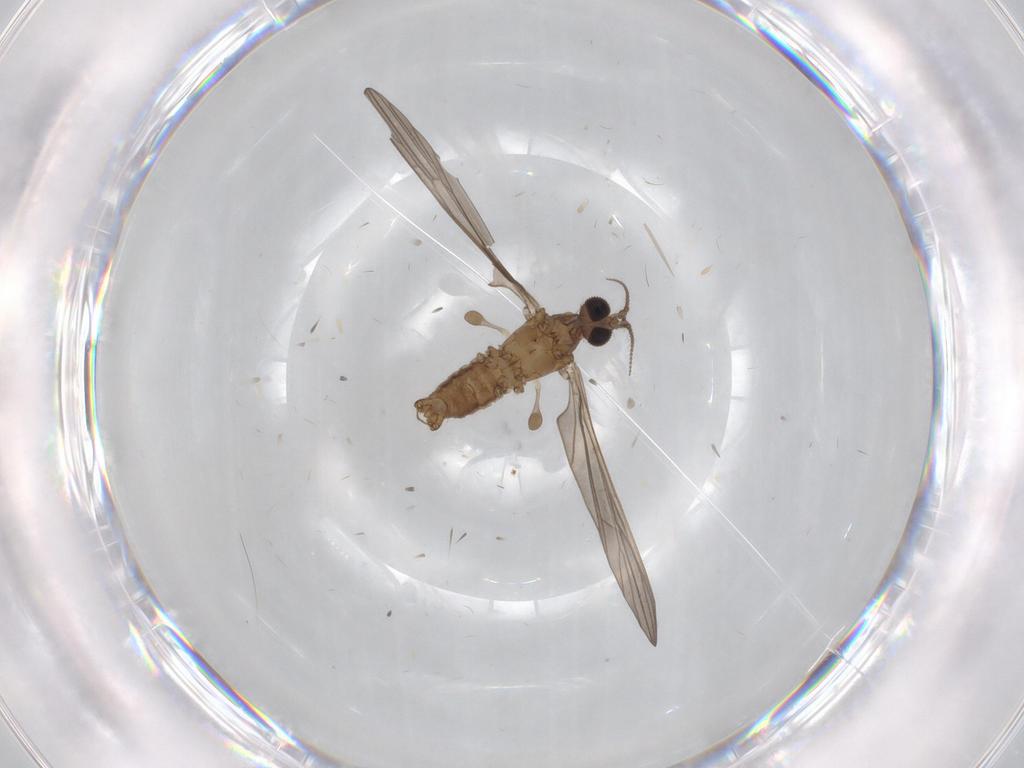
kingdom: Animalia
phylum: Arthropoda
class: Insecta
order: Diptera
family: Limoniidae
